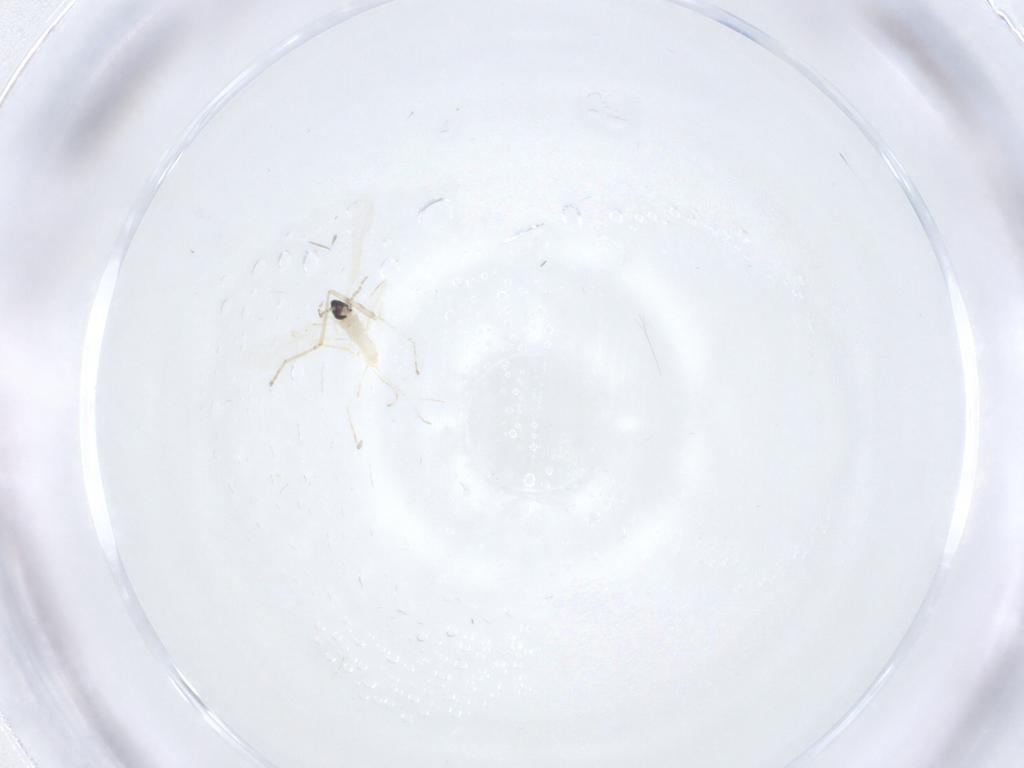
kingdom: Animalia
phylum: Arthropoda
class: Insecta
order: Diptera
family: Cecidomyiidae
